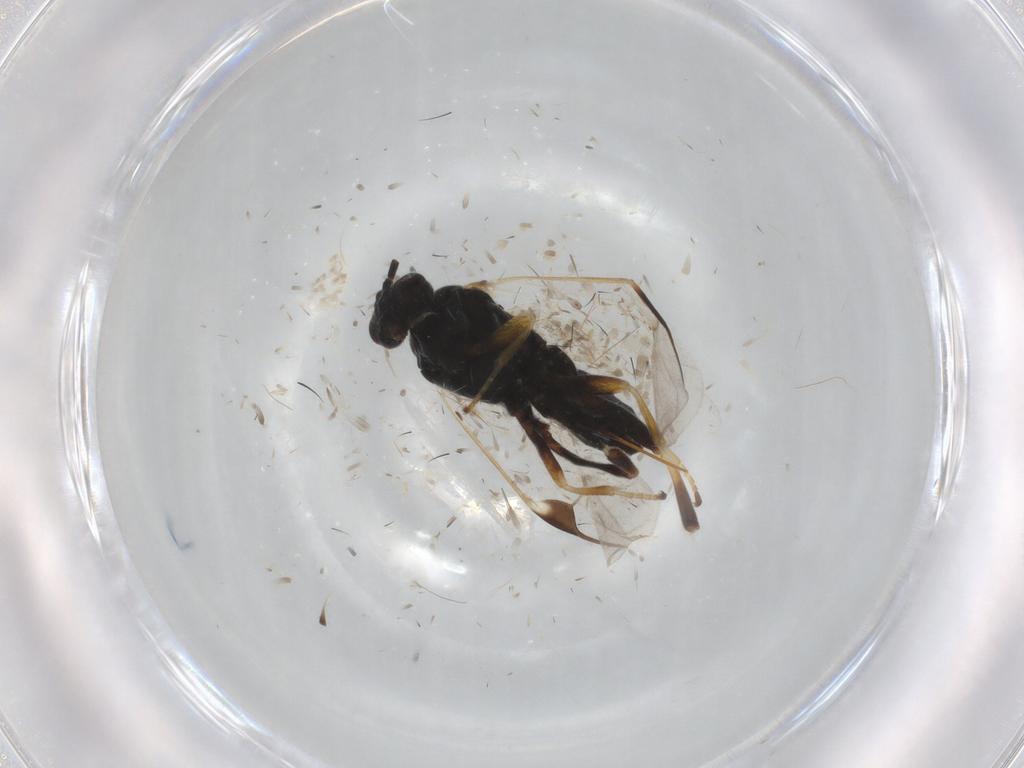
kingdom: Animalia
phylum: Arthropoda
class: Insecta
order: Hymenoptera
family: Braconidae
